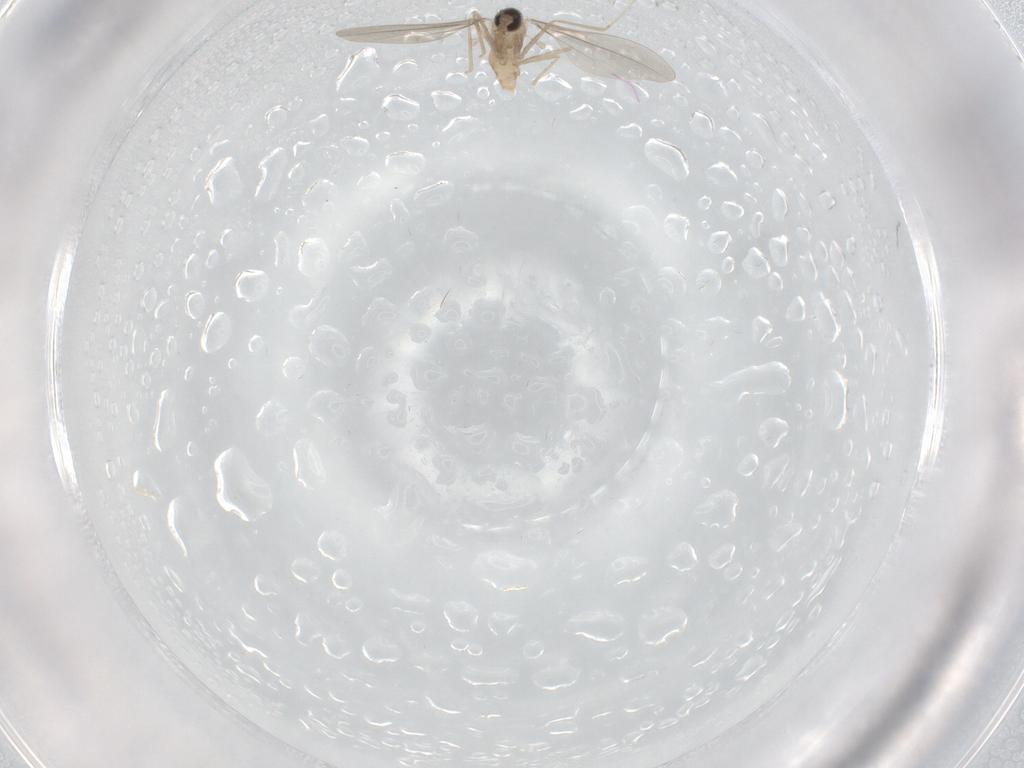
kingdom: Animalia
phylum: Arthropoda
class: Insecta
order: Diptera
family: Cecidomyiidae
